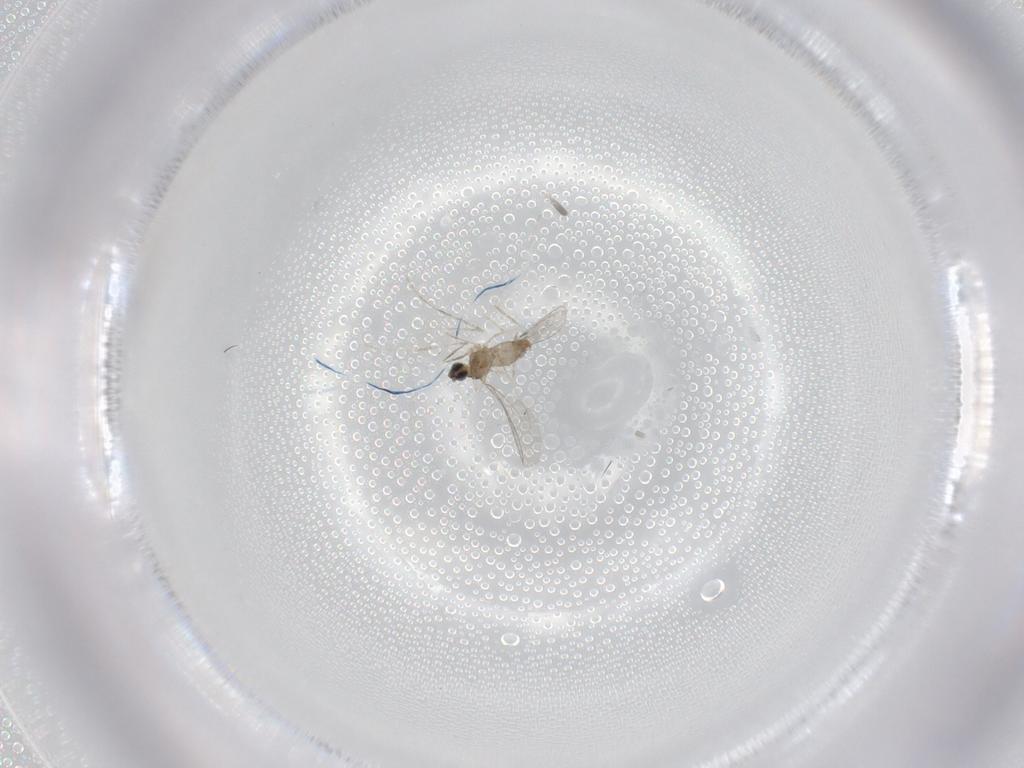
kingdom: Animalia
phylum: Arthropoda
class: Insecta
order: Diptera
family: Cecidomyiidae
